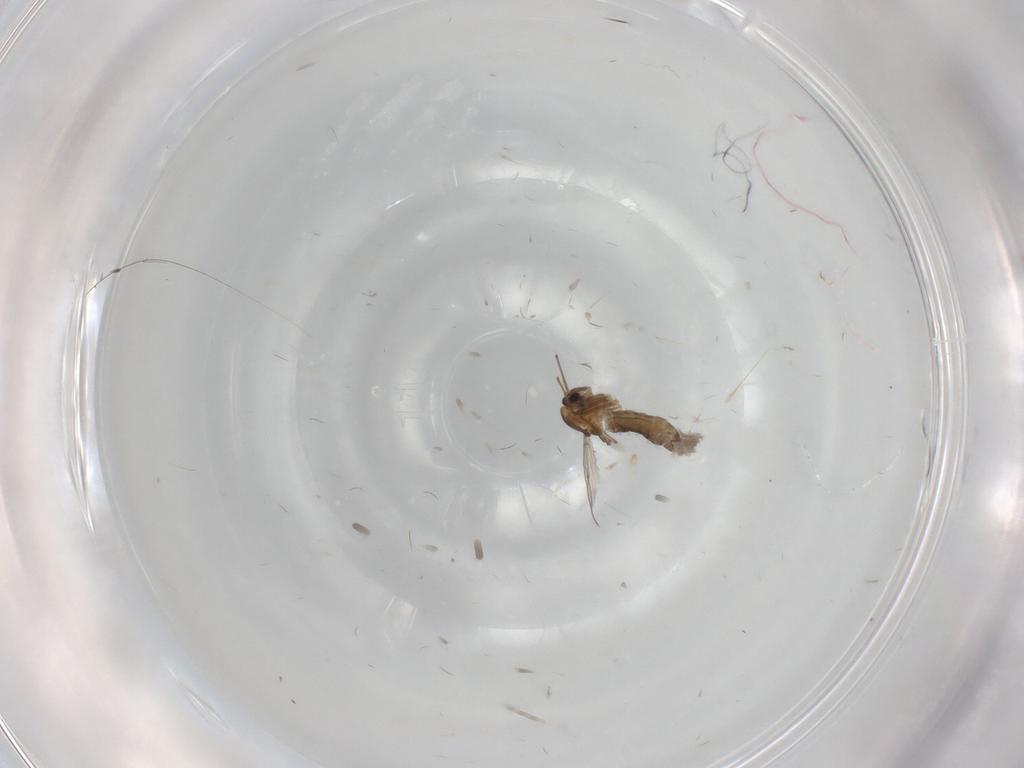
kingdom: Animalia
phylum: Arthropoda
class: Insecta
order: Diptera
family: Chironomidae
